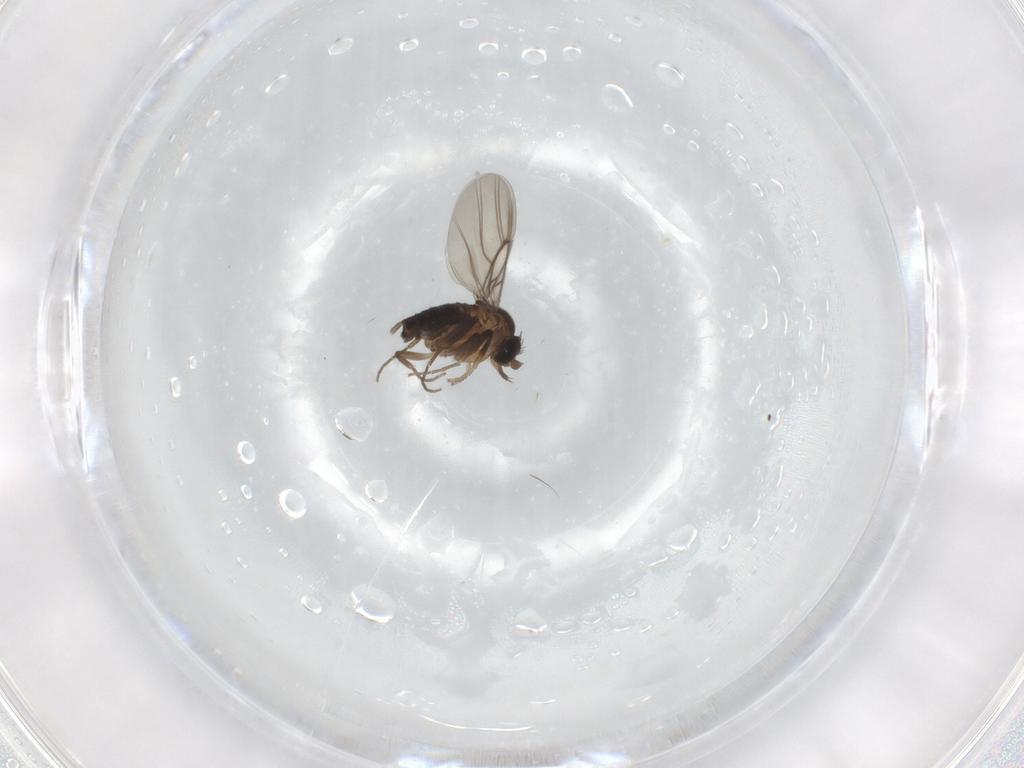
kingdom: Animalia
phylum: Arthropoda
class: Insecta
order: Diptera
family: Phoridae
